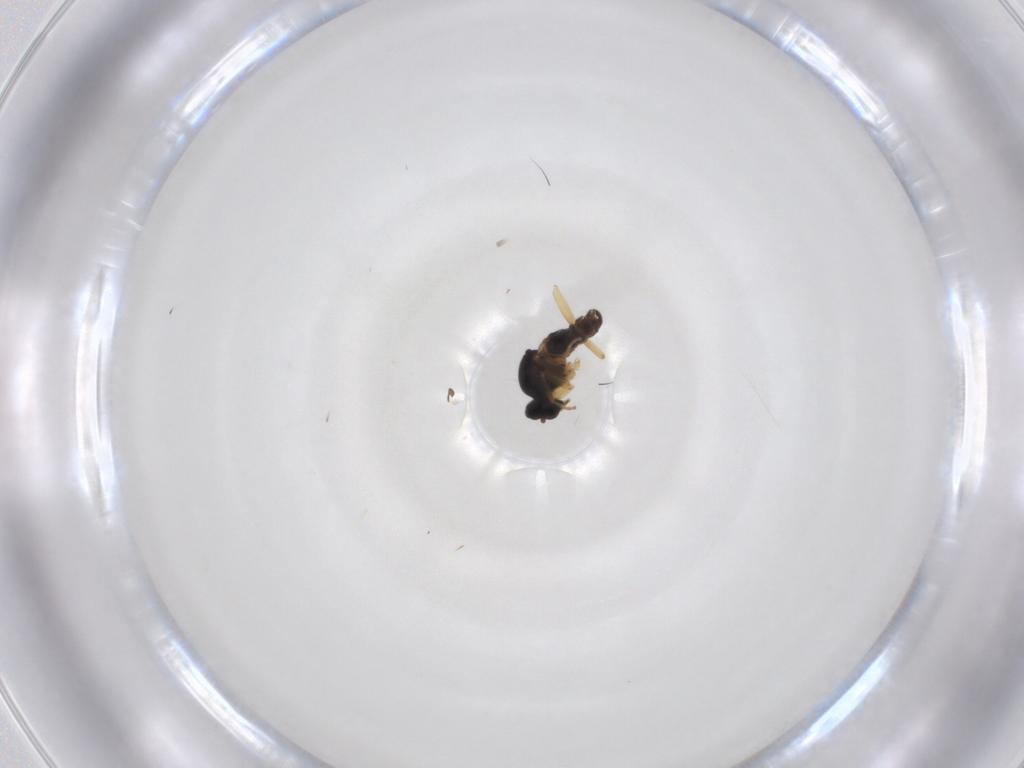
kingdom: Animalia
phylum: Arthropoda
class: Insecta
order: Diptera
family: Hybotidae
